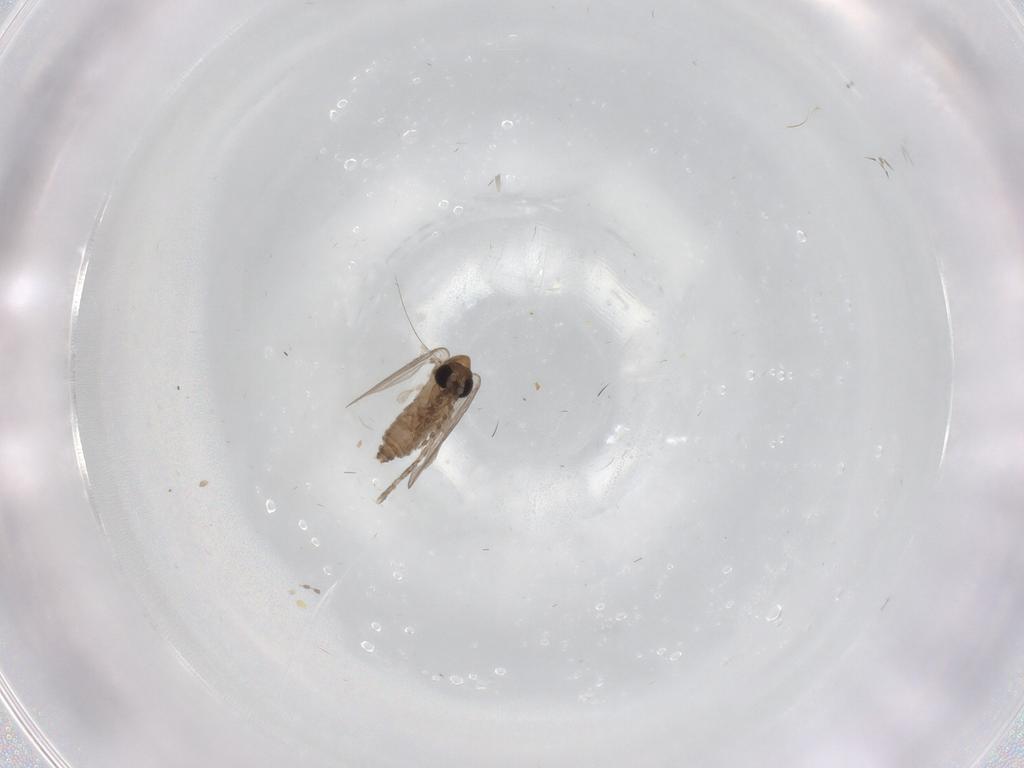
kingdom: Animalia
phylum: Arthropoda
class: Insecta
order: Diptera
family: Psychodidae
